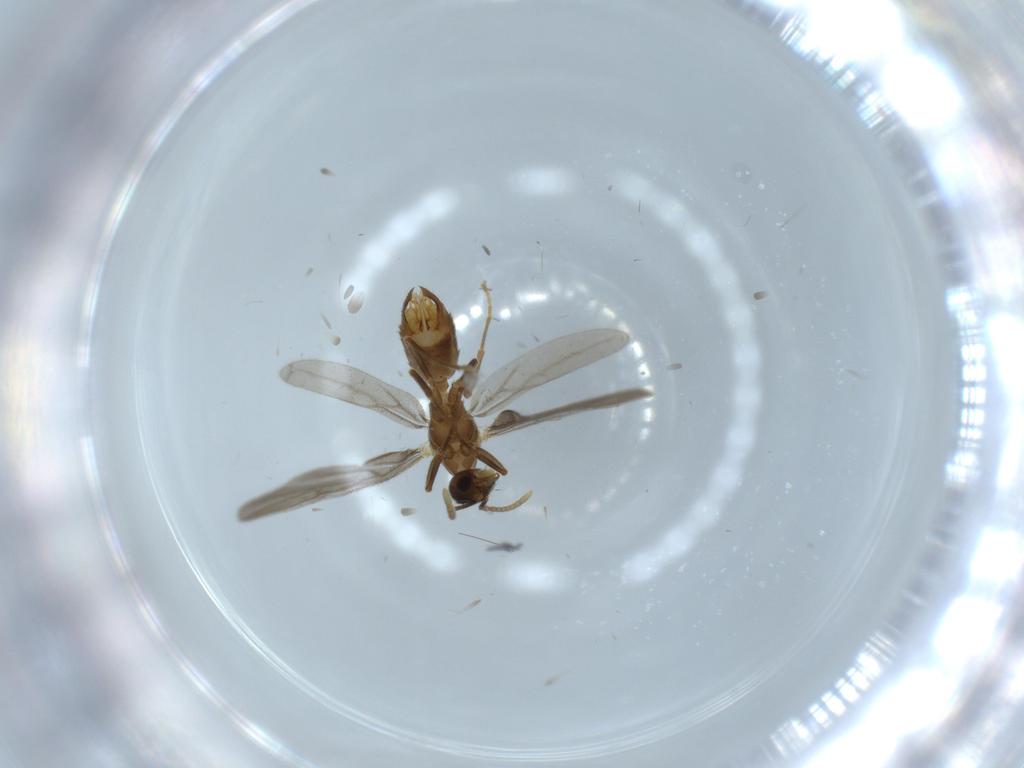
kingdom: Animalia
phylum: Arthropoda
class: Insecta
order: Hymenoptera
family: Formicidae
